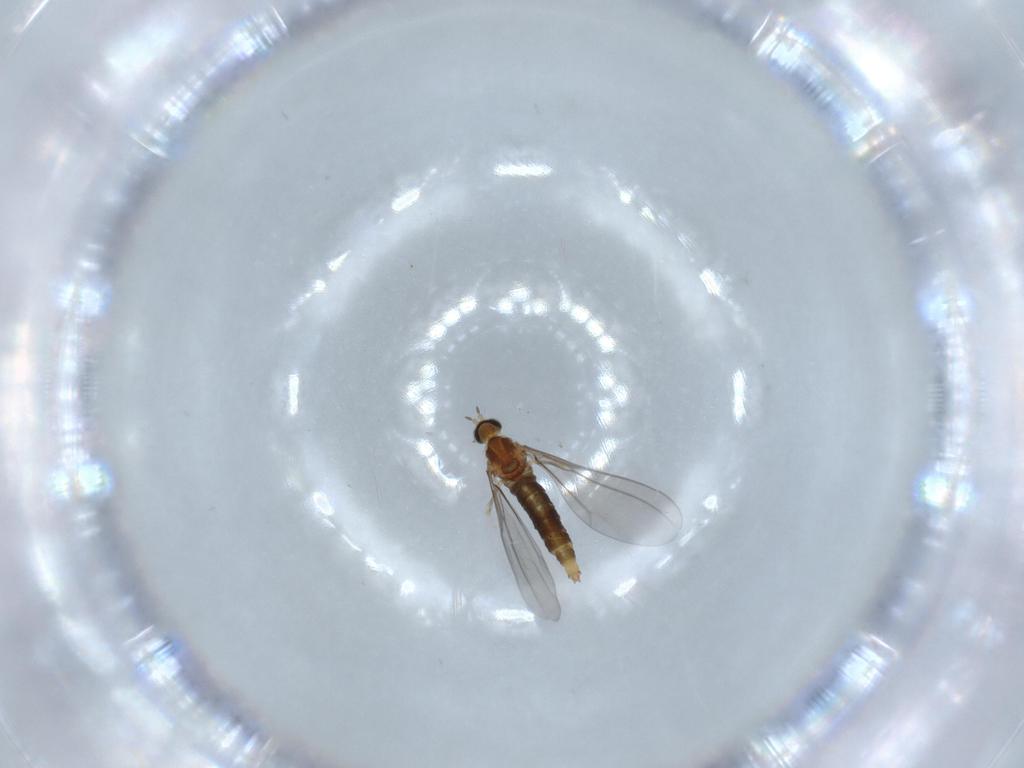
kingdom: Animalia
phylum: Arthropoda
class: Insecta
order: Diptera
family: Cecidomyiidae
